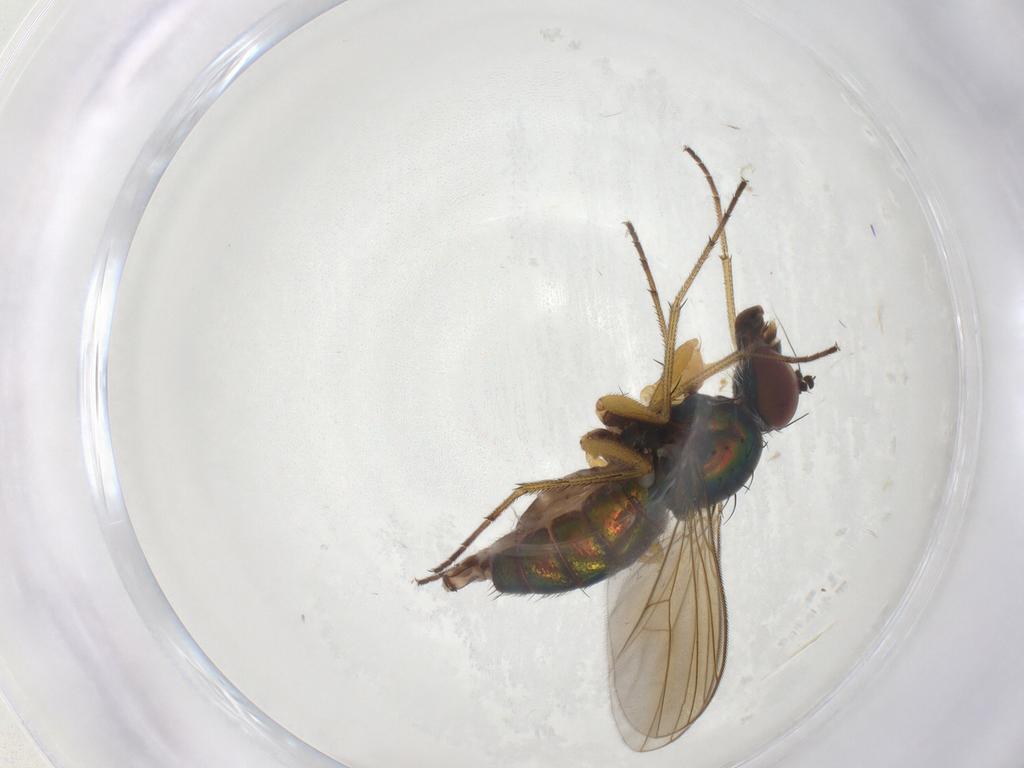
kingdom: Animalia
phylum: Arthropoda
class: Insecta
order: Diptera
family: Dolichopodidae
